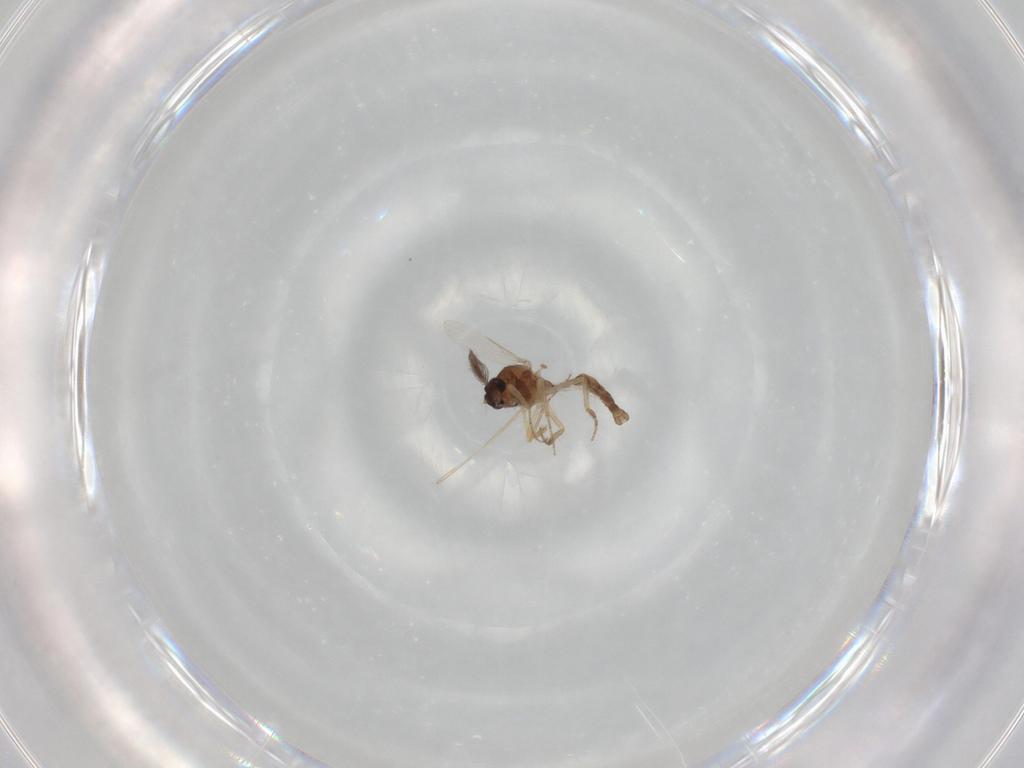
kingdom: Animalia
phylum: Arthropoda
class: Insecta
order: Diptera
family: Ceratopogonidae
